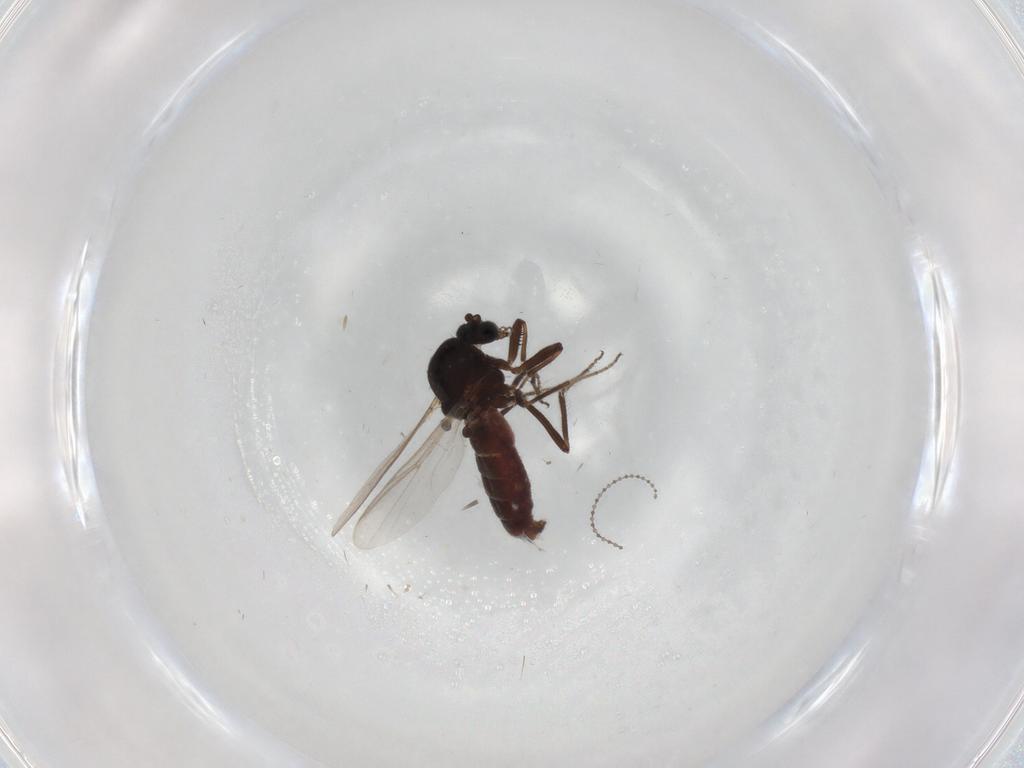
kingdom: Animalia
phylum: Arthropoda
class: Insecta
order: Diptera
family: Ceratopogonidae
